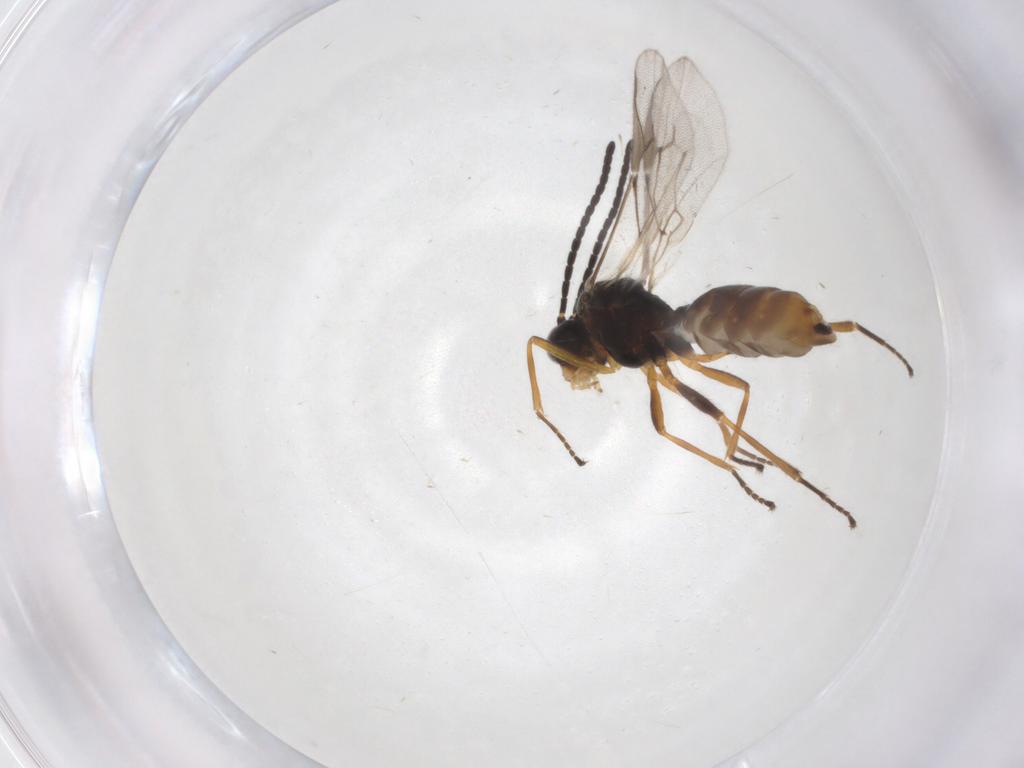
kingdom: Animalia
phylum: Arthropoda
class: Insecta
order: Hymenoptera
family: Braconidae
